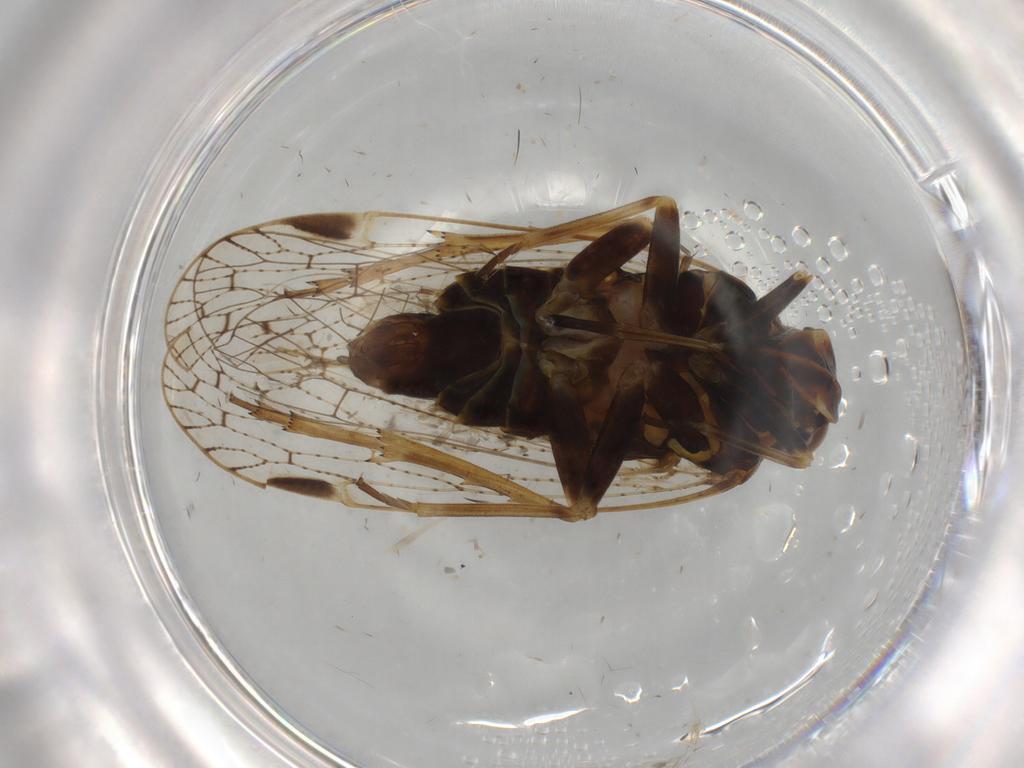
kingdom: Animalia
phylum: Arthropoda
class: Insecta
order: Hemiptera
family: Cixiidae
